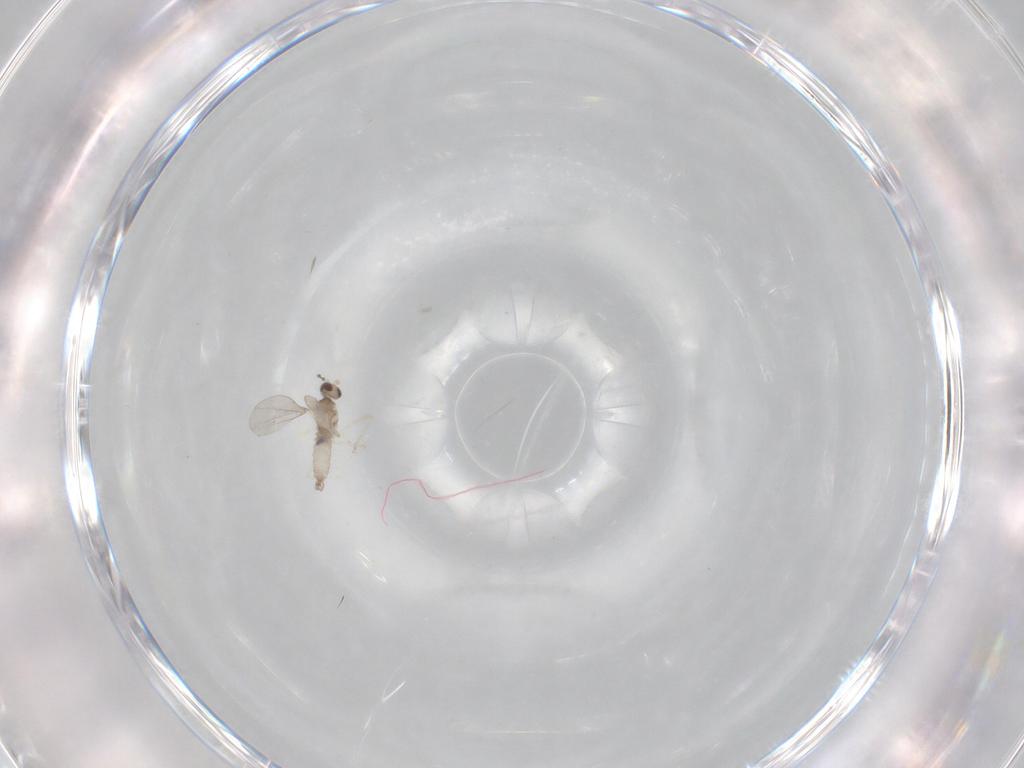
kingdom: Animalia
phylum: Arthropoda
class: Insecta
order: Diptera
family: Cecidomyiidae
